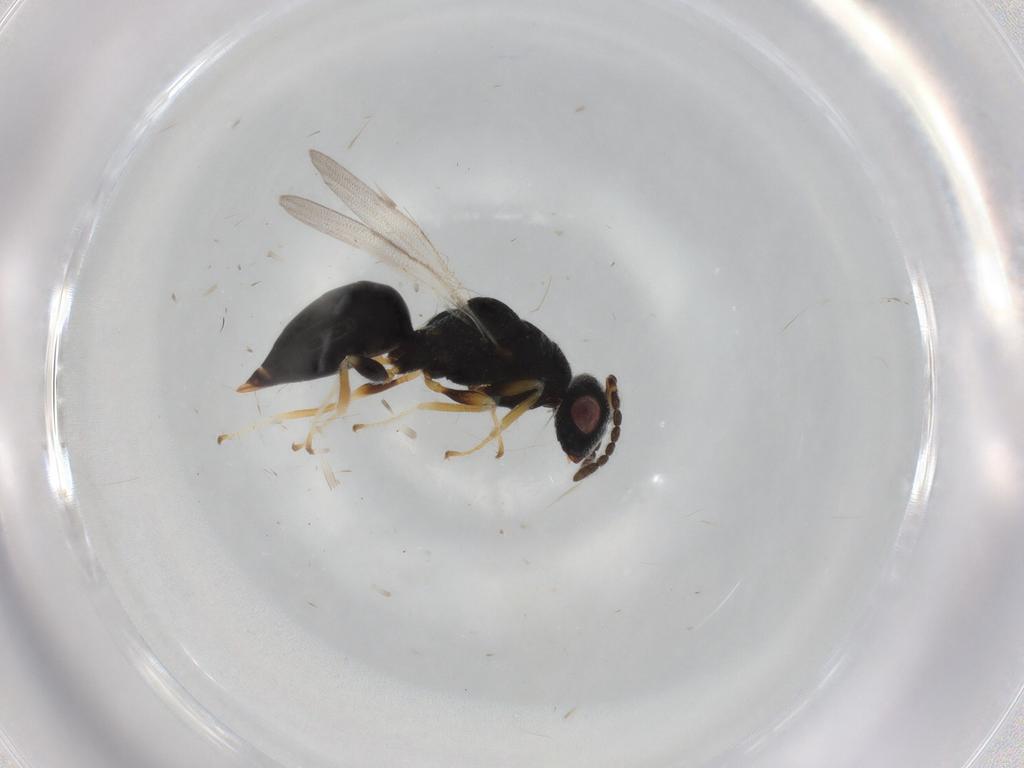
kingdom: Animalia
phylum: Arthropoda
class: Insecta
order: Hymenoptera
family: Eurytomidae
